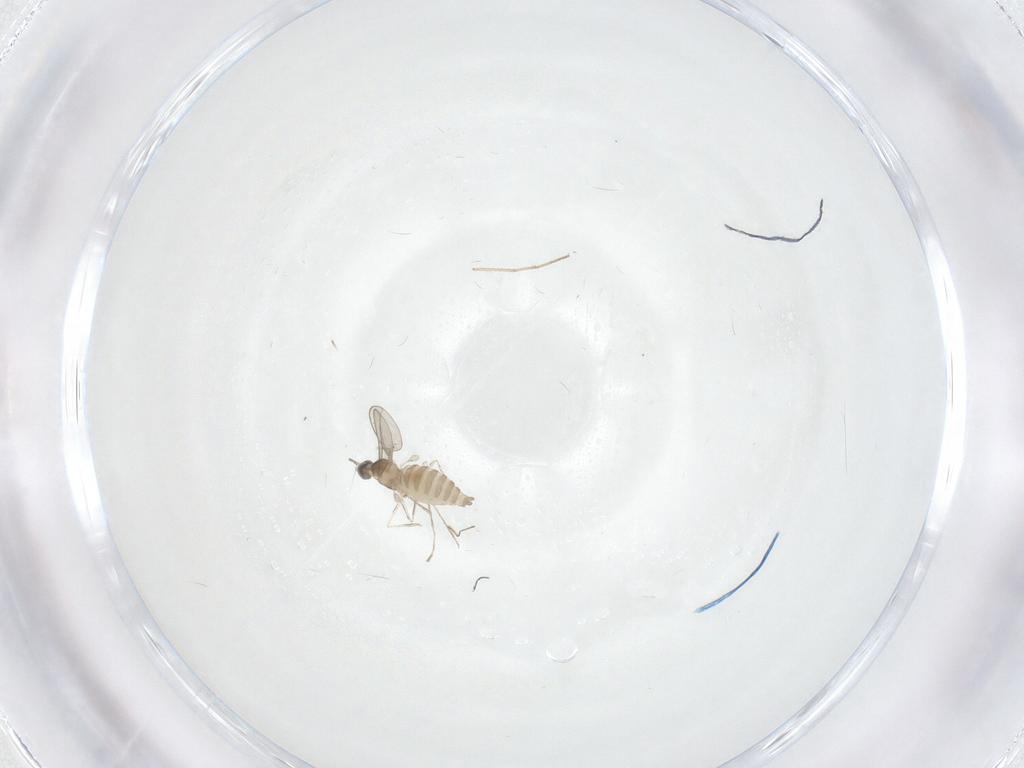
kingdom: Animalia
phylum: Arthropoda
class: Insecta
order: Diptera
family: Cecidomyiidae
